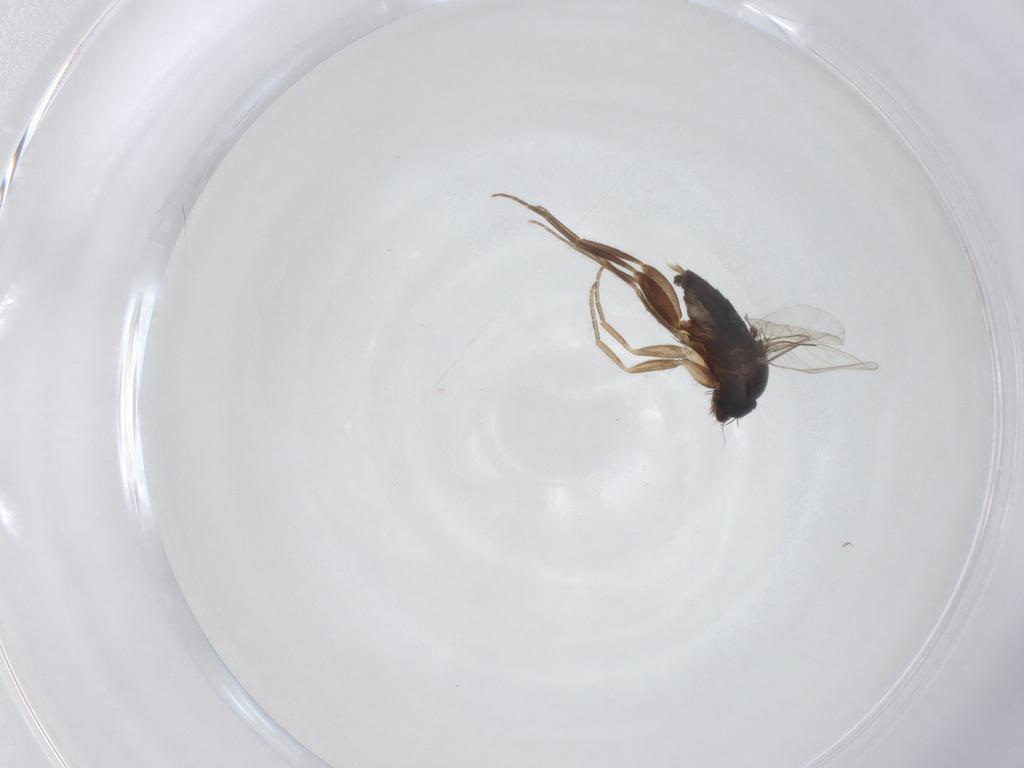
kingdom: Animalia
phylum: Arthropoda
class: Insecta
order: Diptera
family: Phoridae
